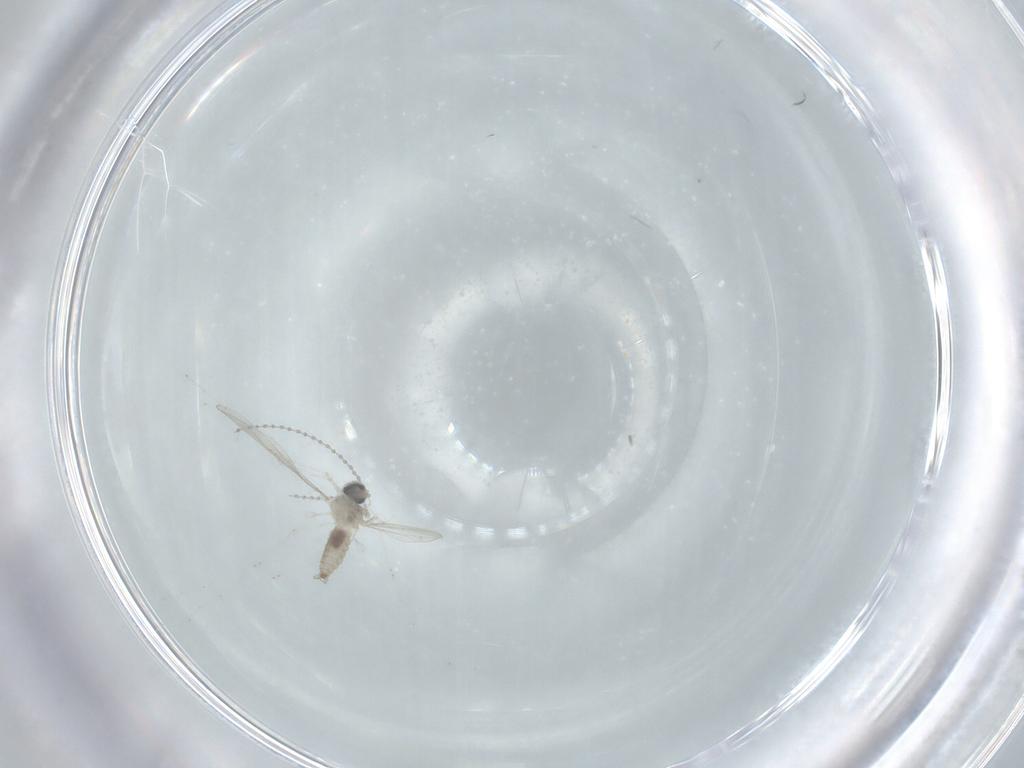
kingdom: Animalia
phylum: Arthropoda
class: Insecta
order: Diptera
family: Cecidomyiidae
